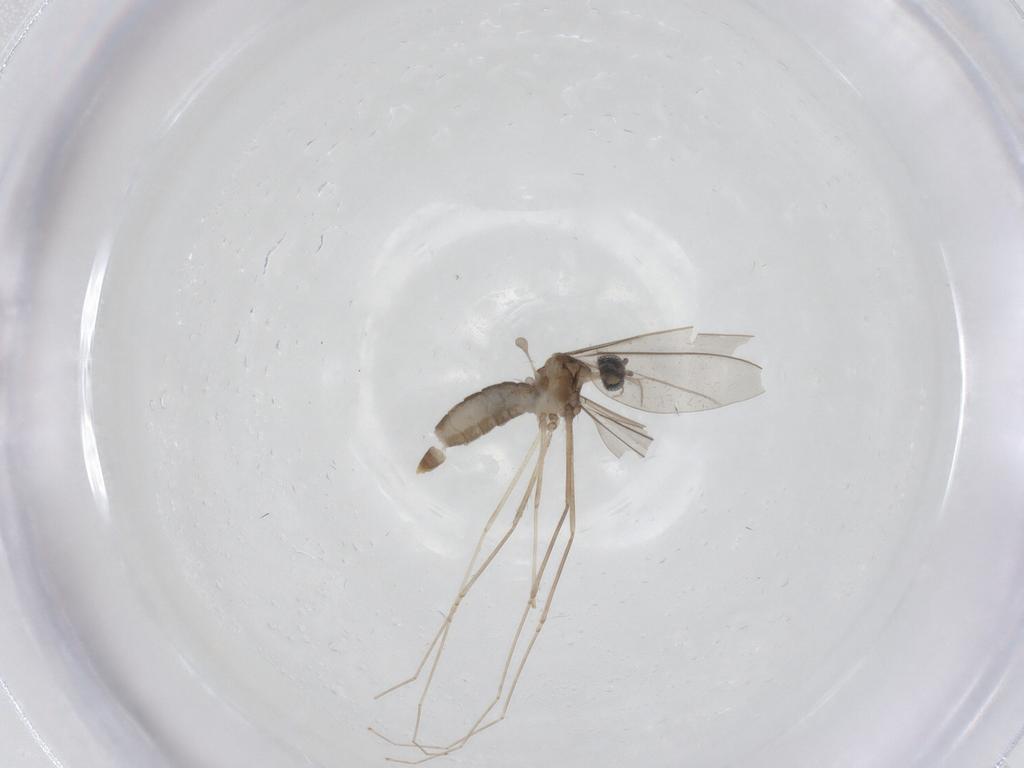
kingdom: Animalia
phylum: Arthropoda
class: Insecta
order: Diptera
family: Cecidomyiidae
